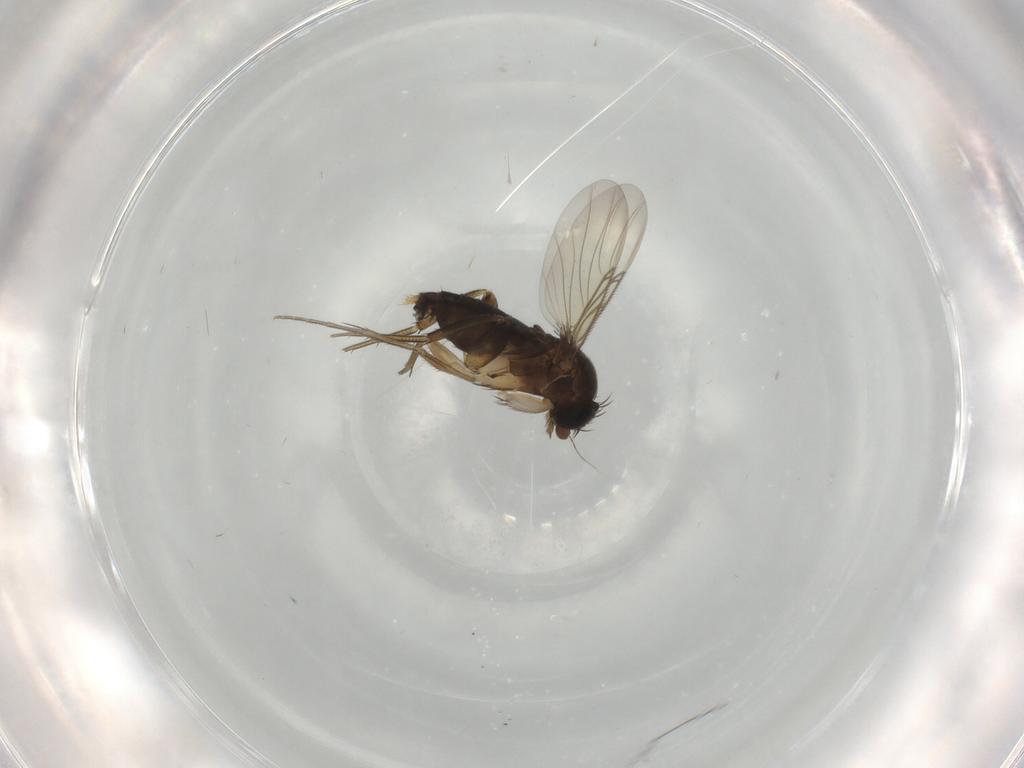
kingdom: Animalia
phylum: Arthropoda
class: Insecta
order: Diptera
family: Phoridae
